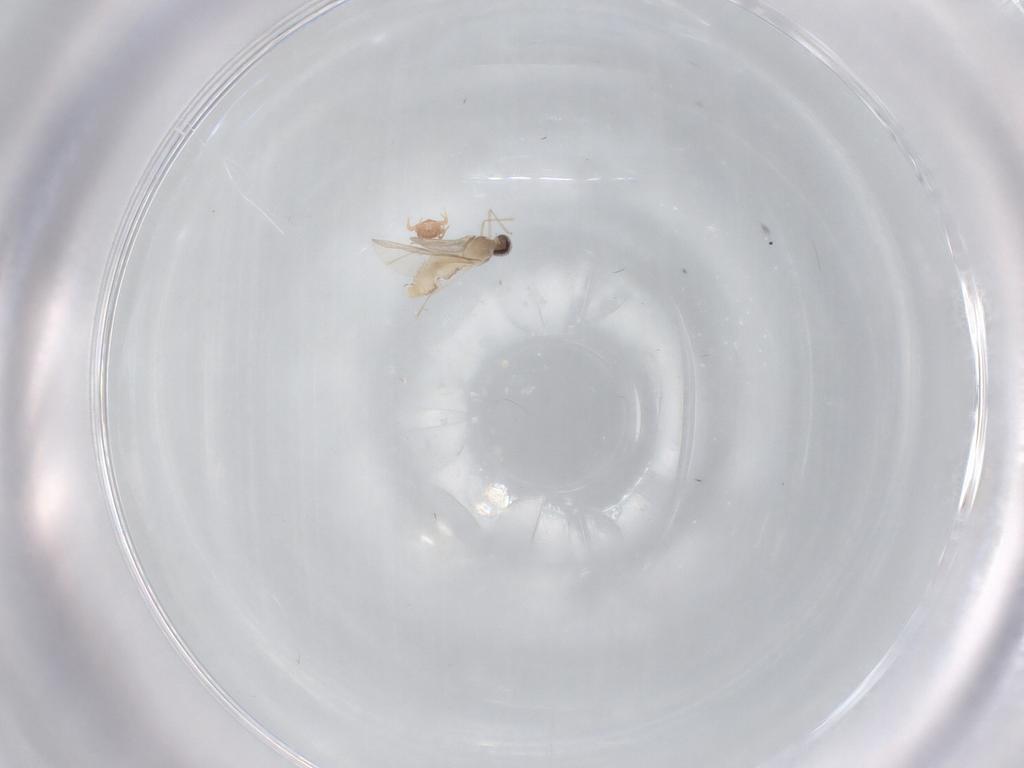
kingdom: Animalia
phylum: Arthropoda
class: Insecta
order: Diptera
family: Cecidomyiidae
